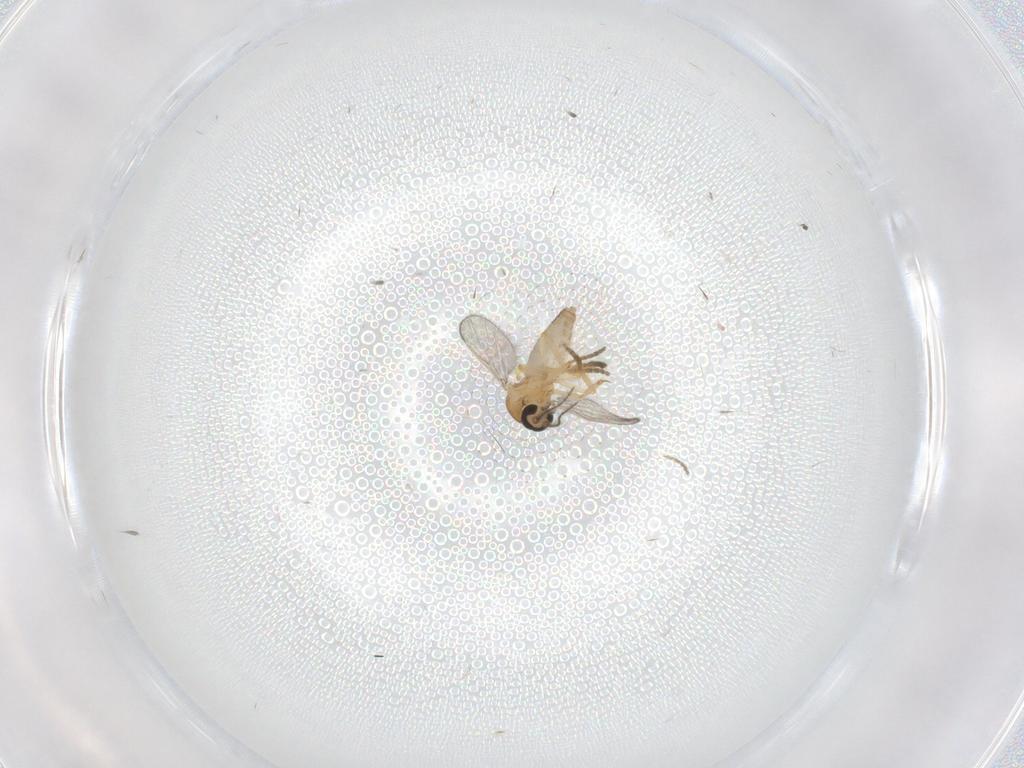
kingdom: Animalia
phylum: Arthropoda
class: Insecta
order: Diptera
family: Ceratopogonidae
